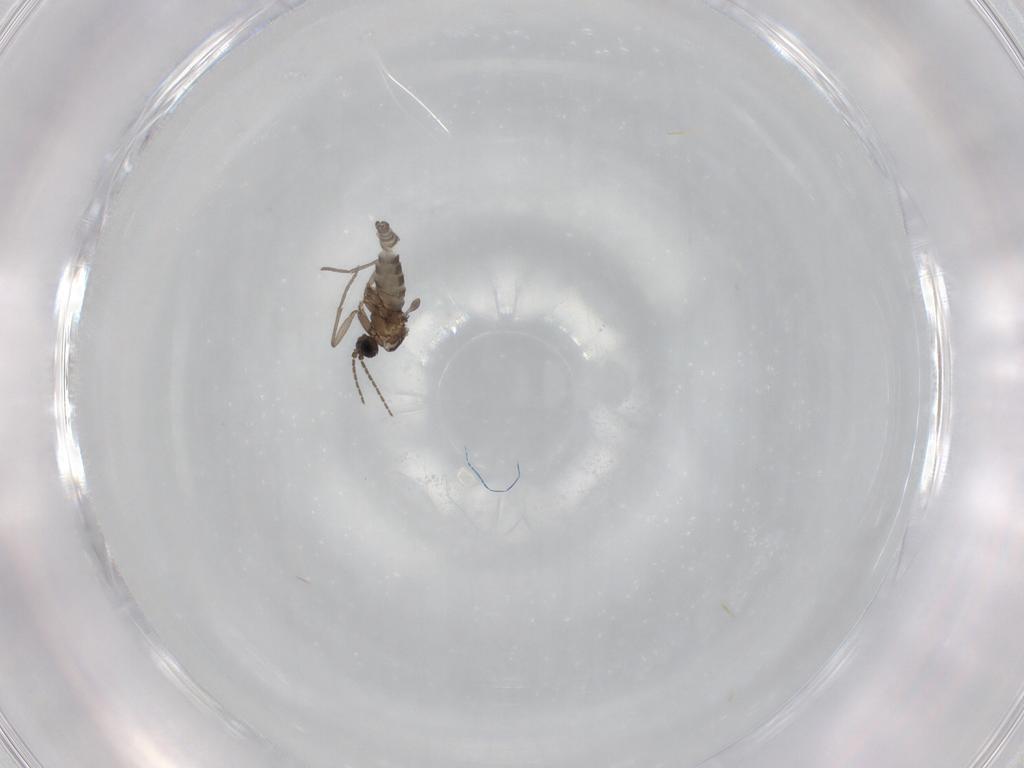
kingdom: Animalia
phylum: Arthropoda
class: Insecta
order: Diptera
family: Sciaridae
